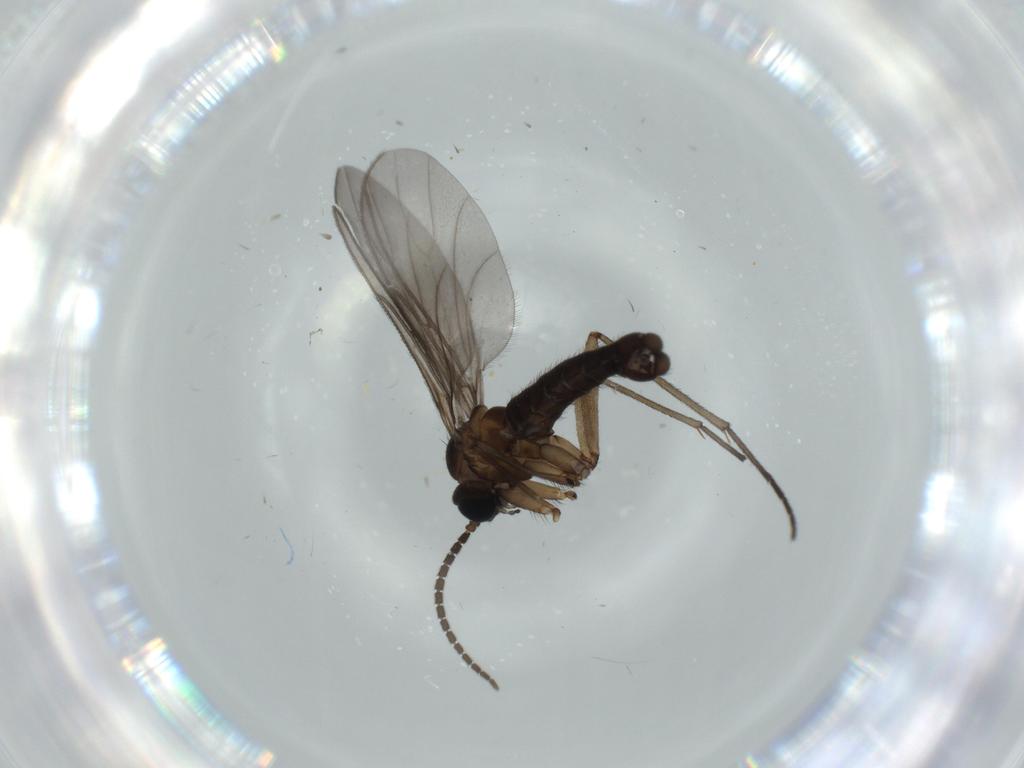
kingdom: Animalia
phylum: Arthropoda
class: Insecta
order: Diptera
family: Sciaridae
